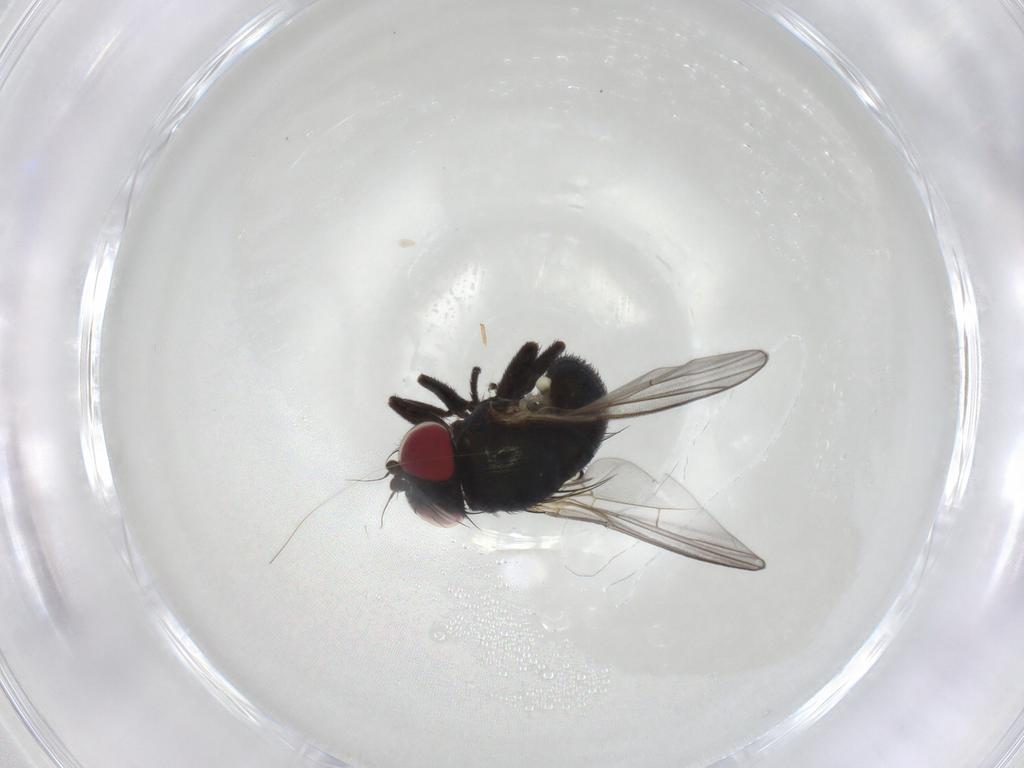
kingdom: Animalia
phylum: Arthropoda
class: Insecta
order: Diptera
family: Agromyzidae
